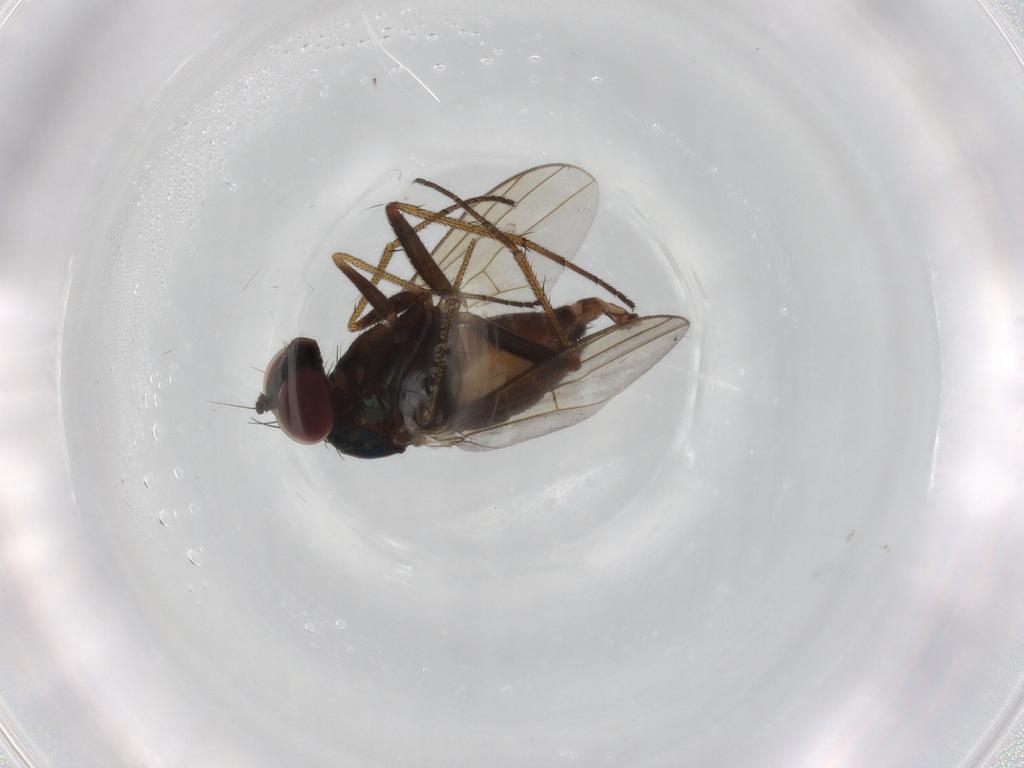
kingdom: Animalia
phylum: Arthropoda
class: Insecta
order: Diptera
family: Dolichopodidae
